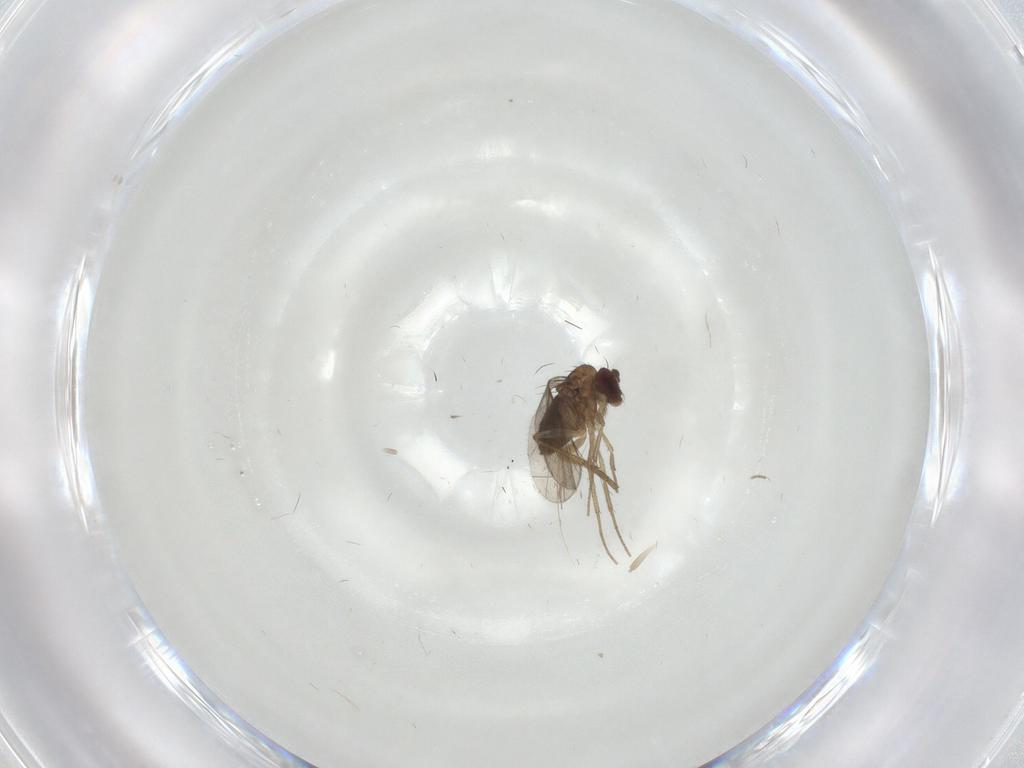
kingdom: Animalia
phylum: Arthropoda
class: Insecta
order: Diptera
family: Dolichopodidae
